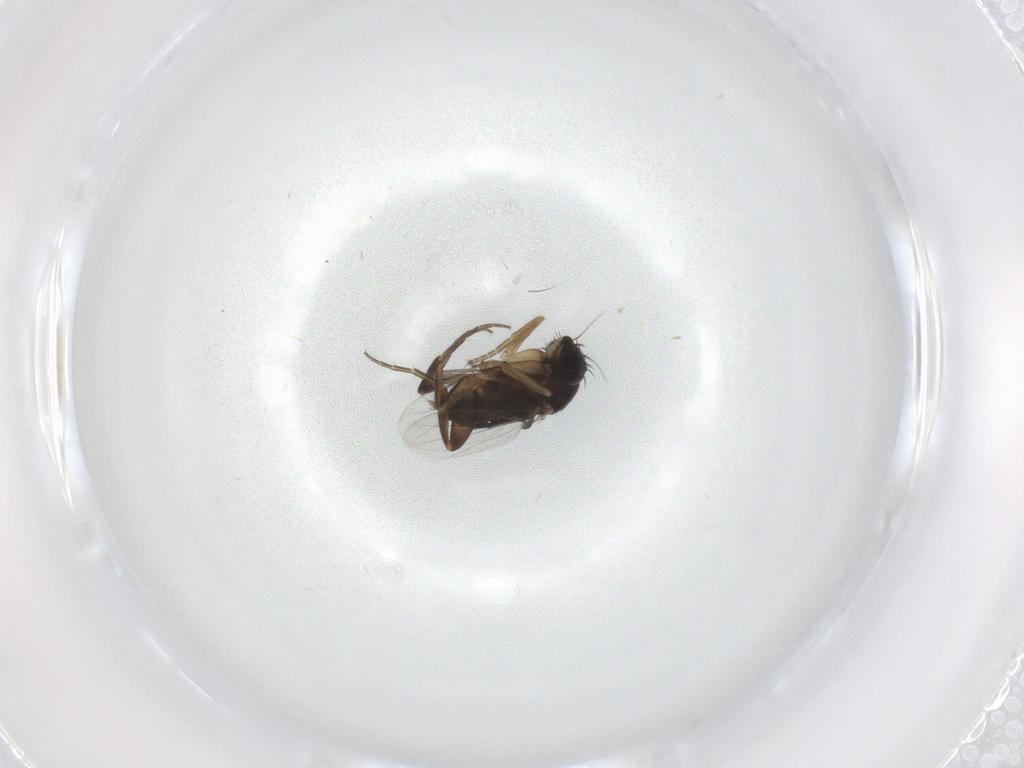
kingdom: Animalia
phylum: Arthropoda
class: Insecta
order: Diptera
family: Phoridae
